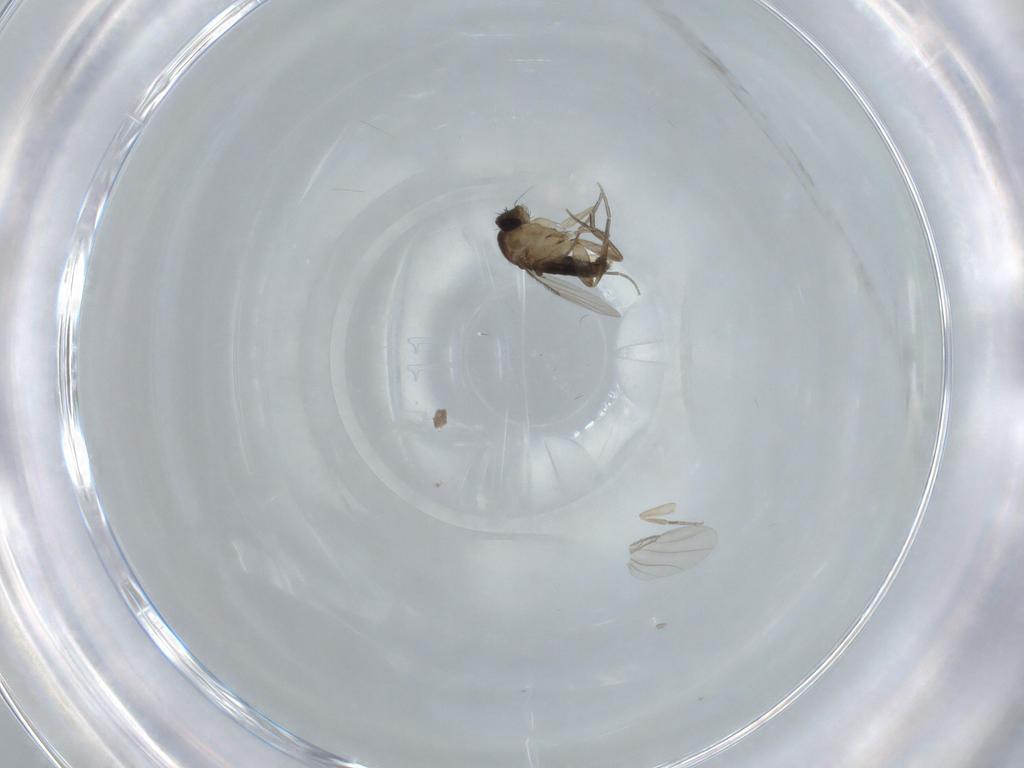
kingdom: Animalia
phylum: Arthropoda
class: Insecta
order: Diptera
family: Phoridae
